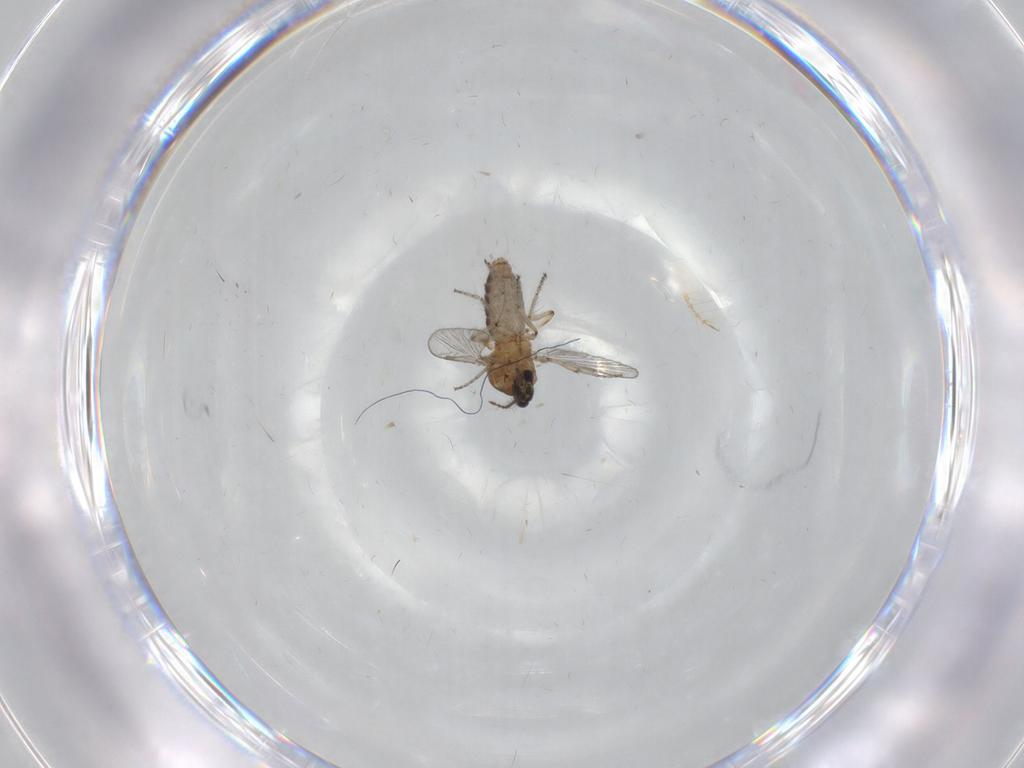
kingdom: Animalia
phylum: Arthropoda
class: Insecta
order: Diptera
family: Ceratopogonidae
